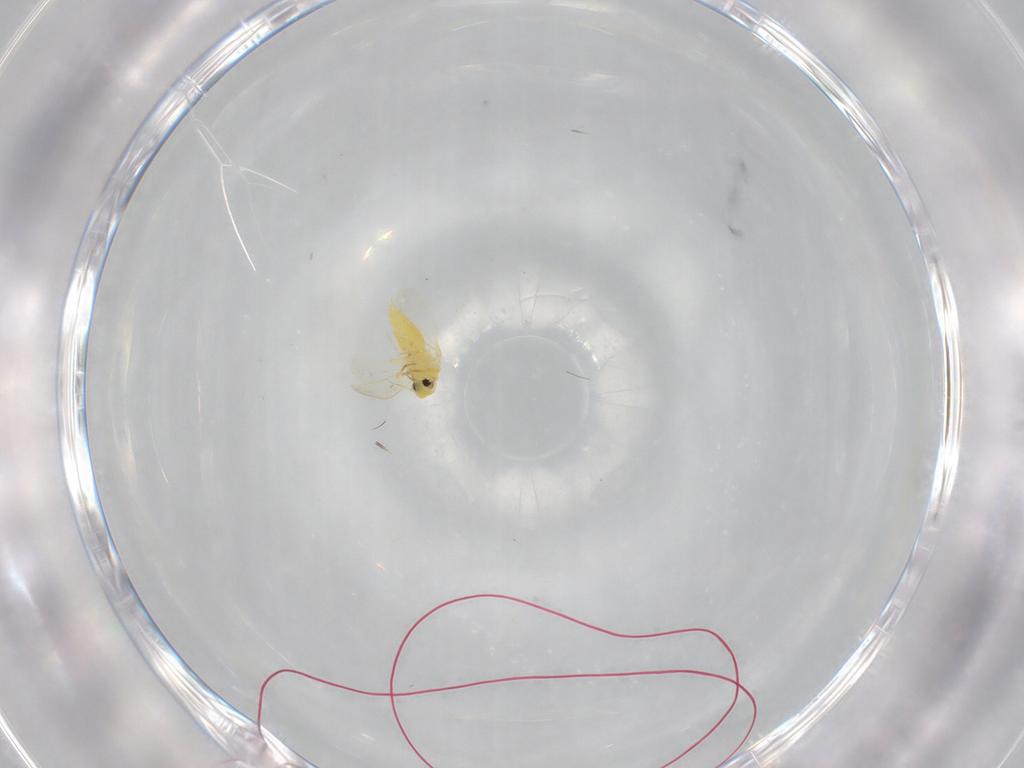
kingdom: Animalia
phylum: Arthropoda
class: Insecta
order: Hemiptera
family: Aleyrodidae
